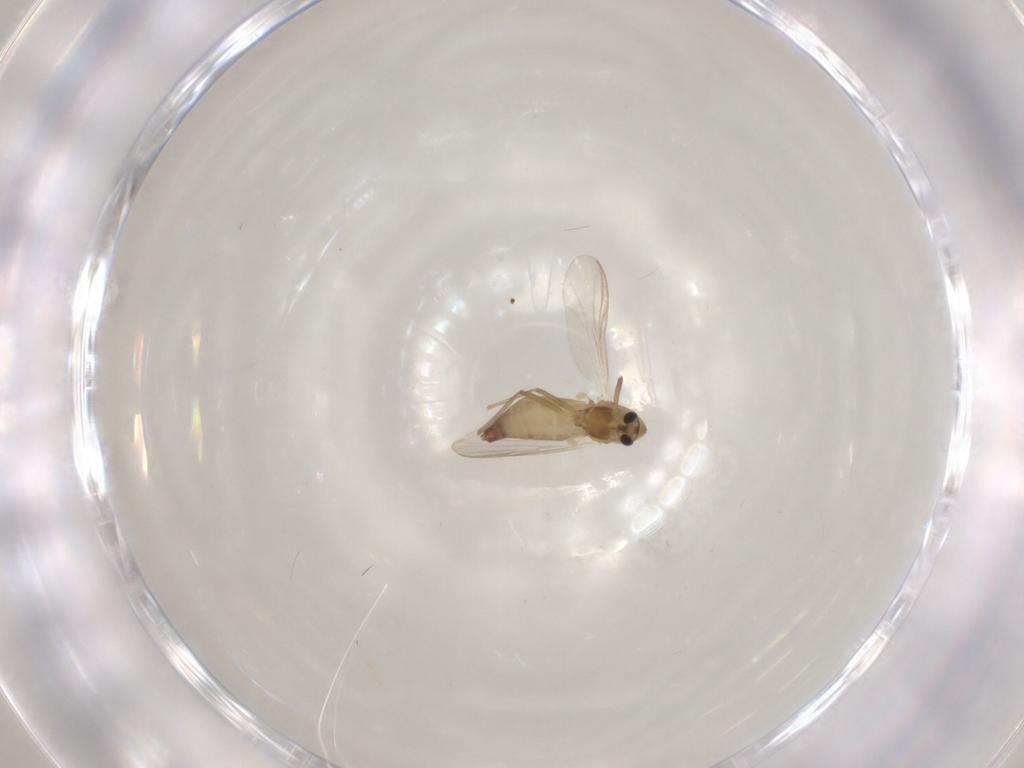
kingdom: Animalia
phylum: Arthropoda
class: Insecta
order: Diptera
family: Chironomidae
